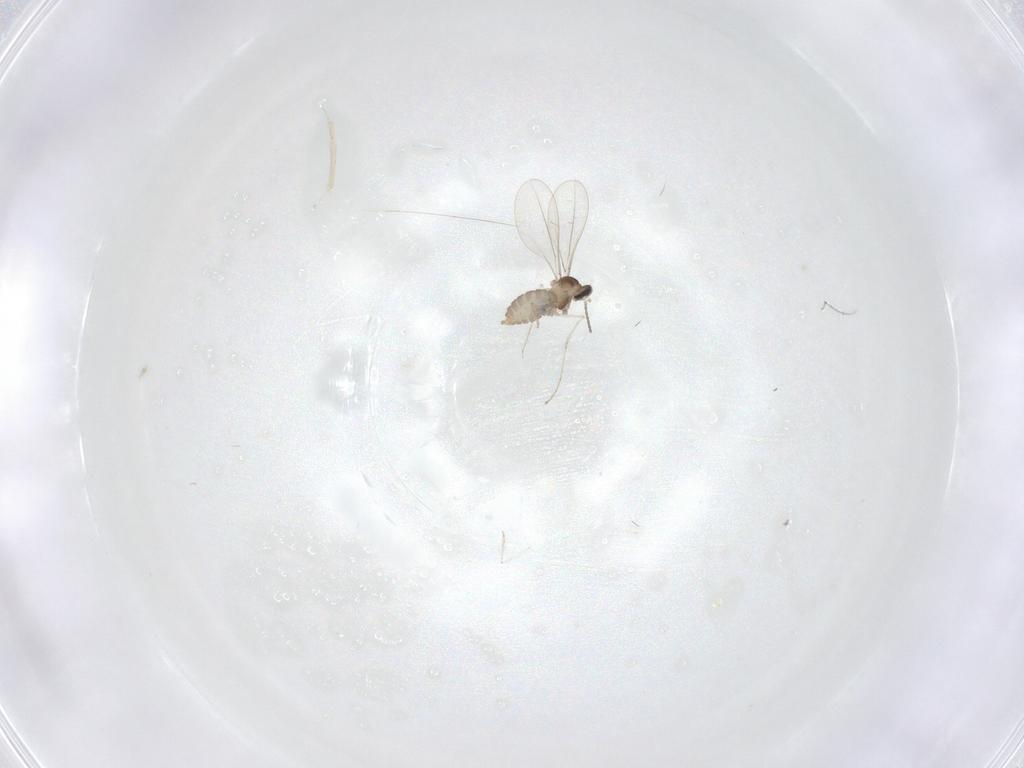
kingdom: Animalia
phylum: Arthropoda
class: Insecta
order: Diptera
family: Cecidomyiidae
